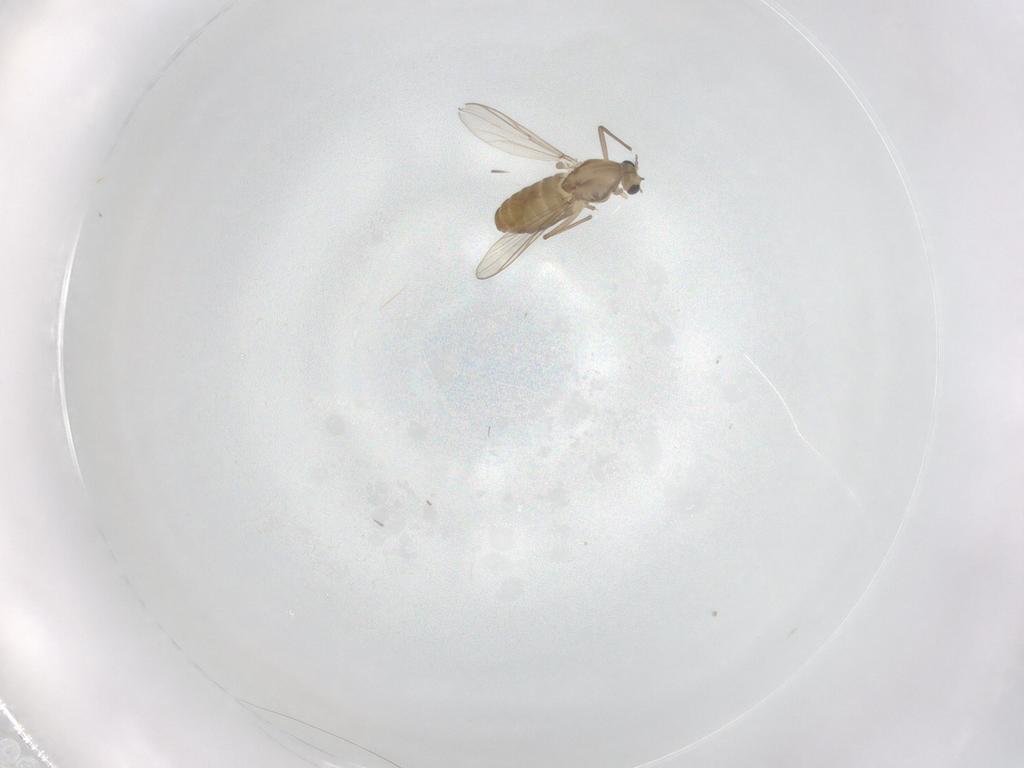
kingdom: Animalia
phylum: Arthropoda
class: Insecta
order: Diptera
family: Chironomidae
